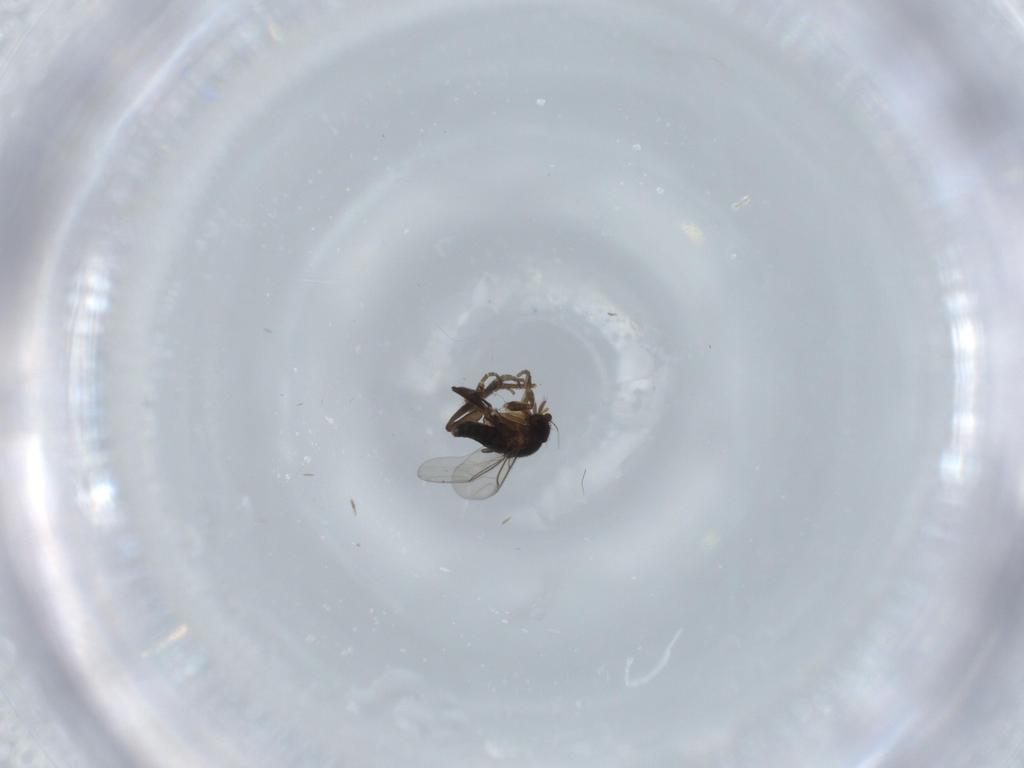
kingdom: Animalia
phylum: Arthropoda
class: Insecta
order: Diptera
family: Phoridae
